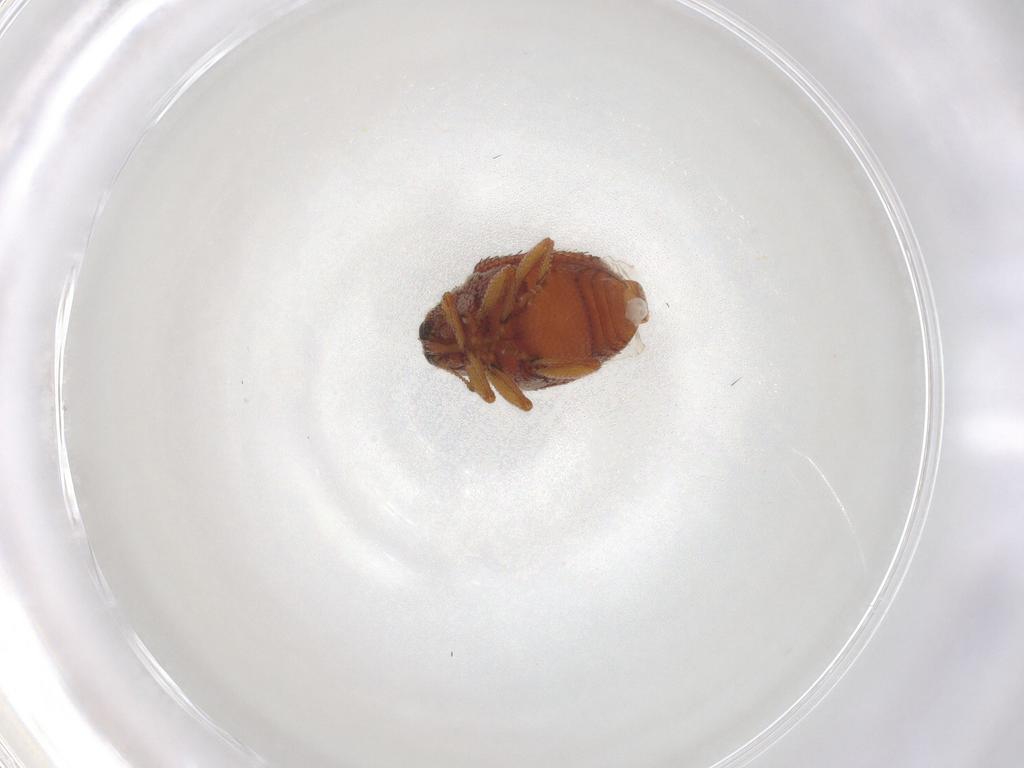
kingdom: Animalia
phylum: Arthropoda
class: Insecta
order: Coleoptera
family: Curculionidae
